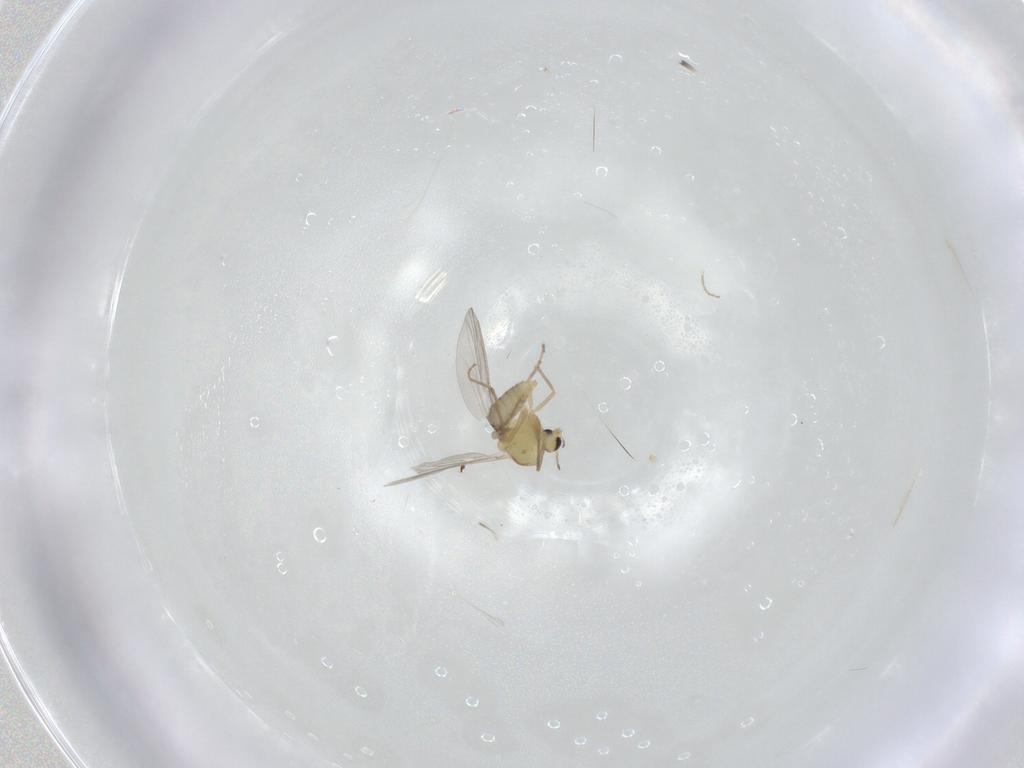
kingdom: Animalia
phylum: Arthropoda
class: Insecta
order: Diptera
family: Chironomidae
